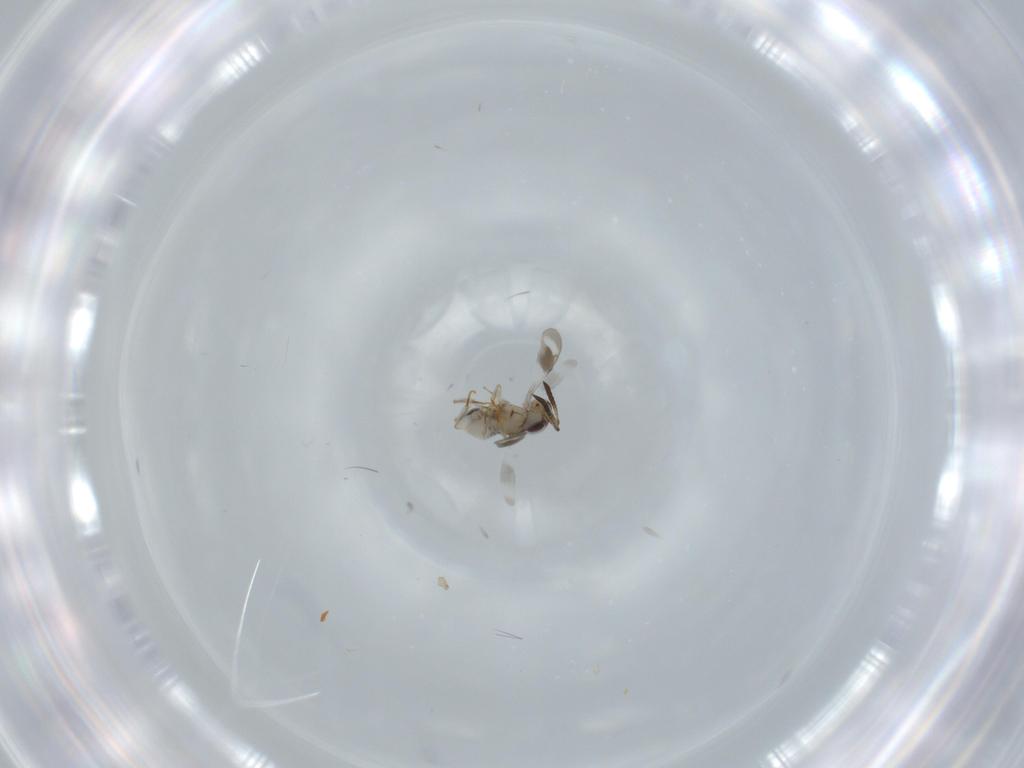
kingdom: Animalia
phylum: Arthropoda
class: Insecta
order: Hymenoptera
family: Ceraphronidae
